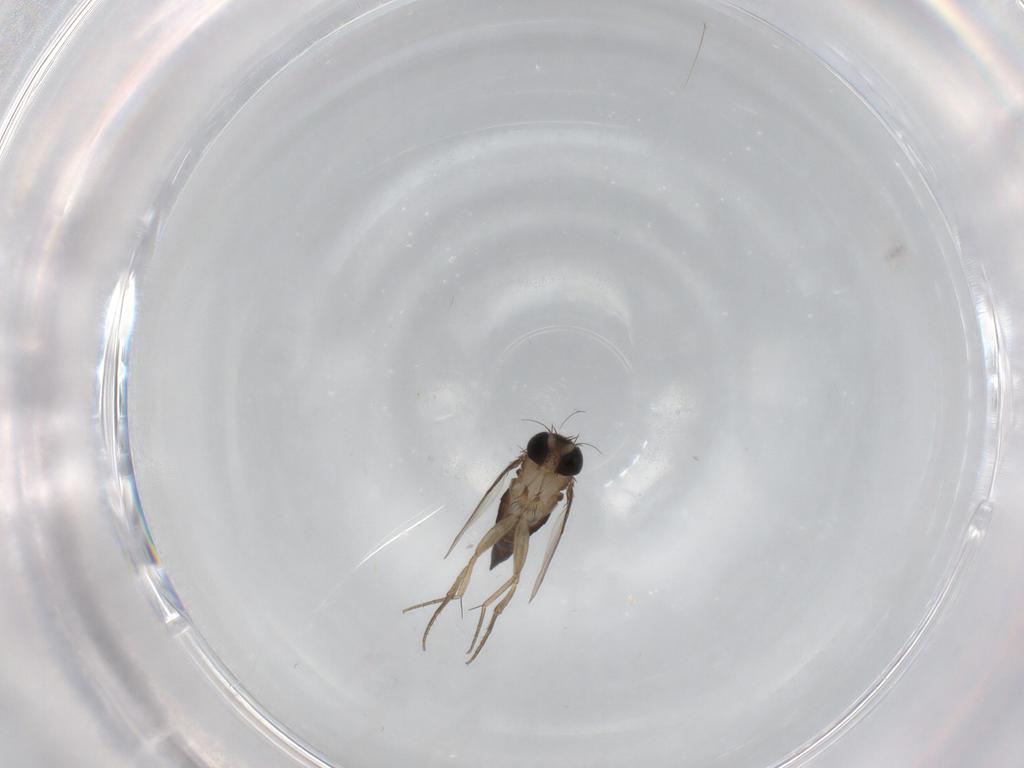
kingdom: Animalia
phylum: Arthropoda
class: Insecta
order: Diptera
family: Phoridae
